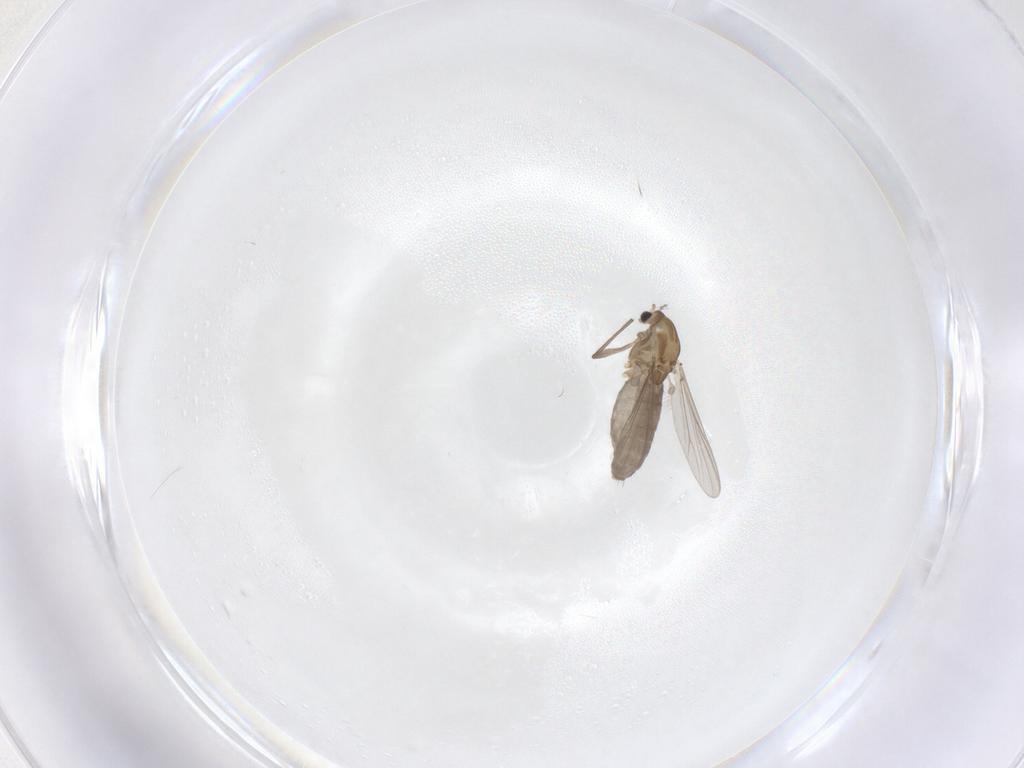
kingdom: Animalia
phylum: Arthropoda
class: Insecta
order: Diptera
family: Chironomidae
